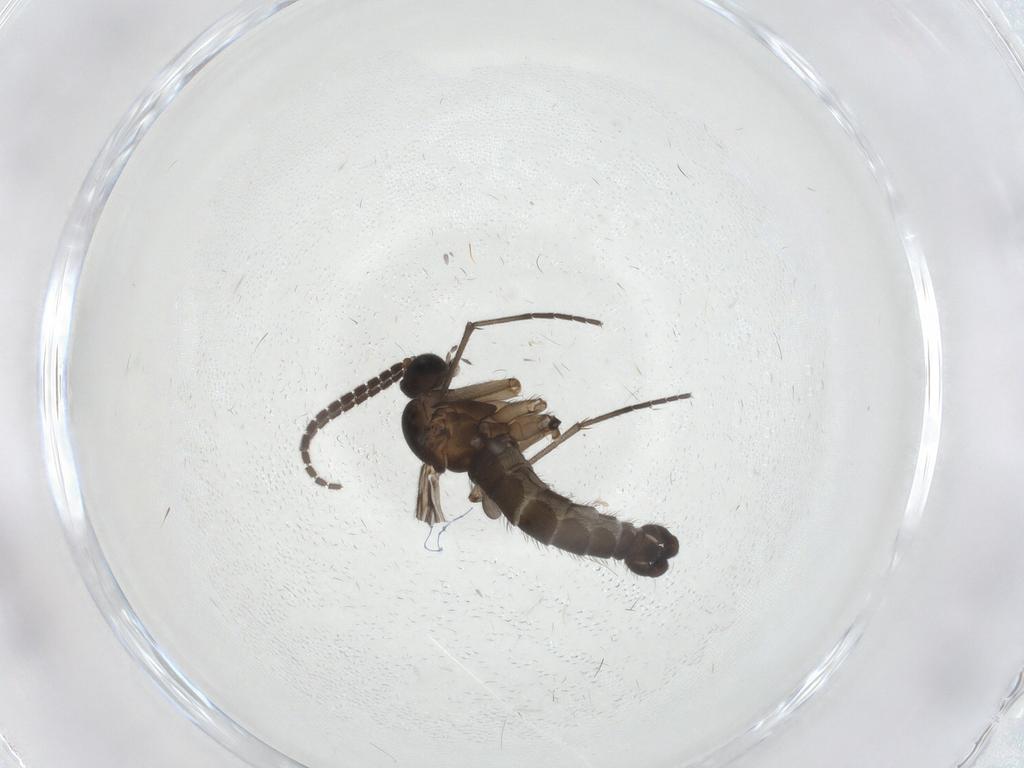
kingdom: Animalia
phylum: Arthropoda
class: Insecta
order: Diptera
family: Sciaridae
